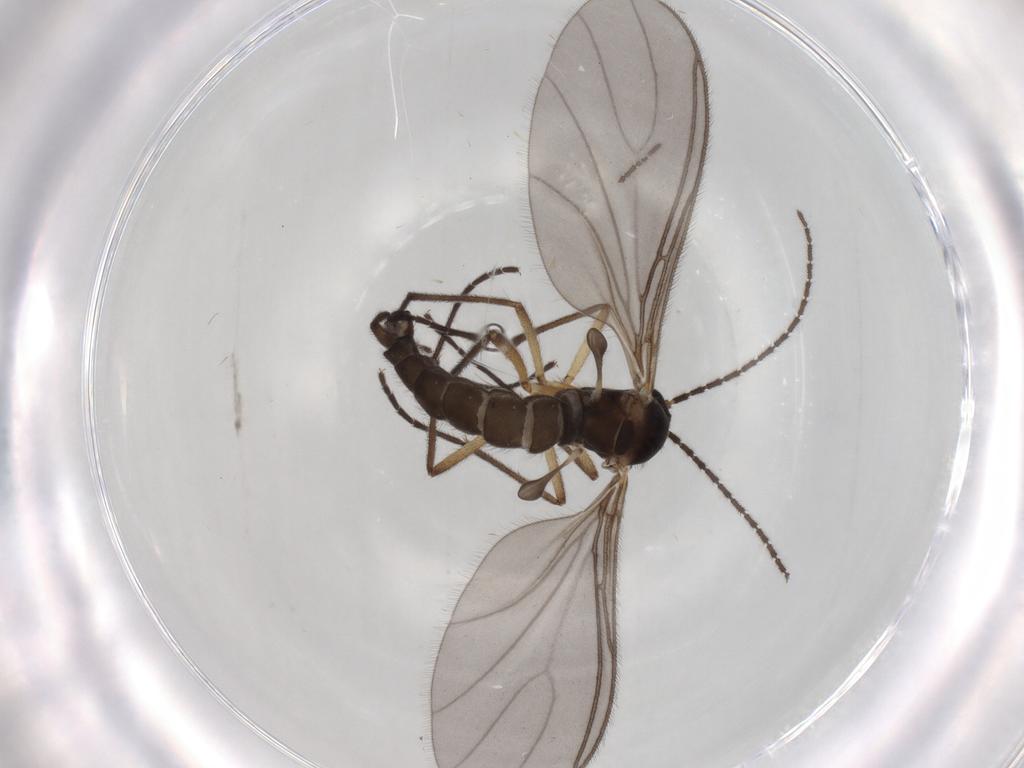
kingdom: Animalia
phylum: Arthropoda
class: Insecta
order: Diptera
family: Sciaridae
